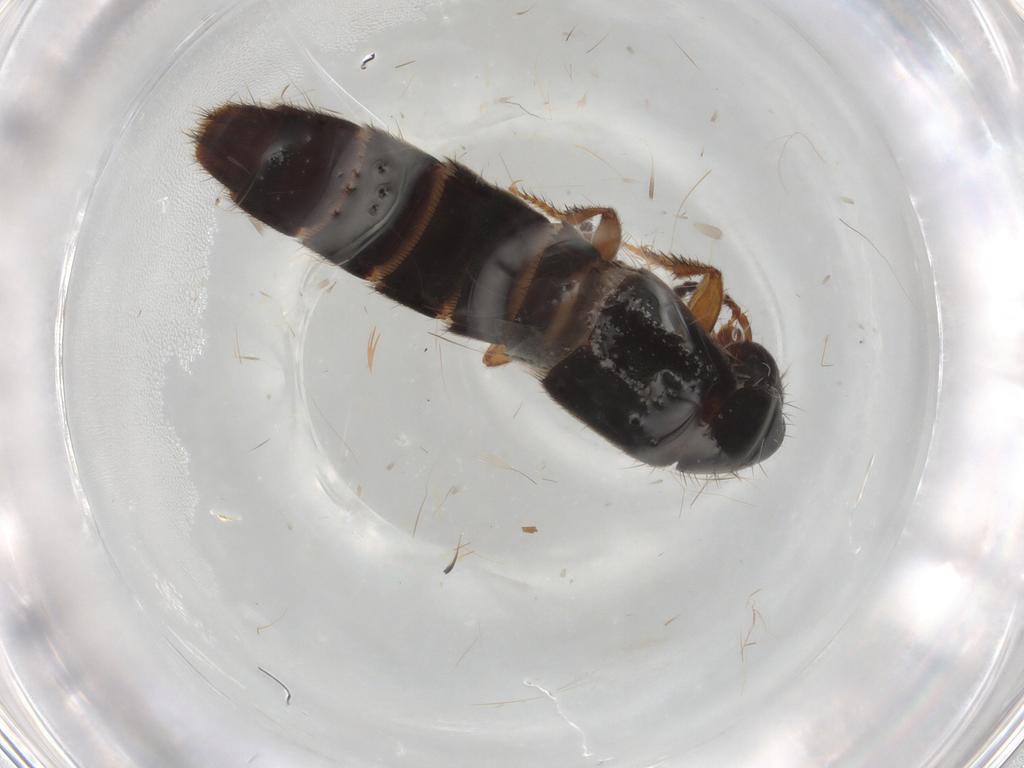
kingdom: Animalia
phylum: Arthropoda
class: Insecta
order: Coleoptera
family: Staphylinidae
